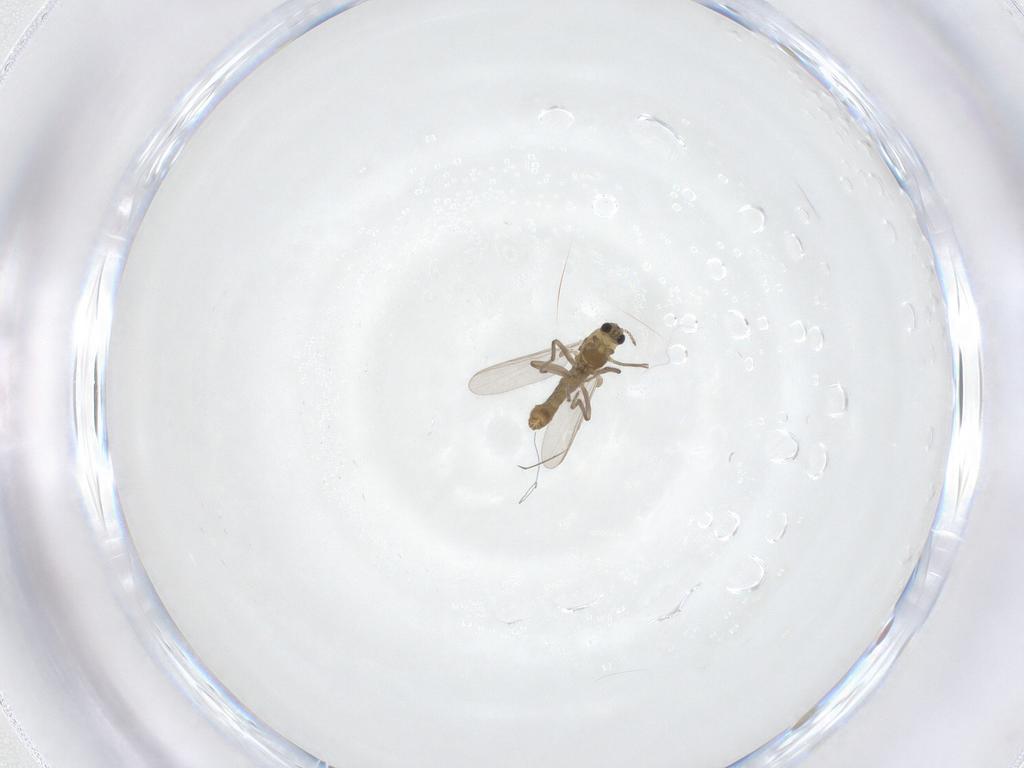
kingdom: Animalia
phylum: Arthropoda
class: Insecta
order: Diptera
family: Chironomidae
